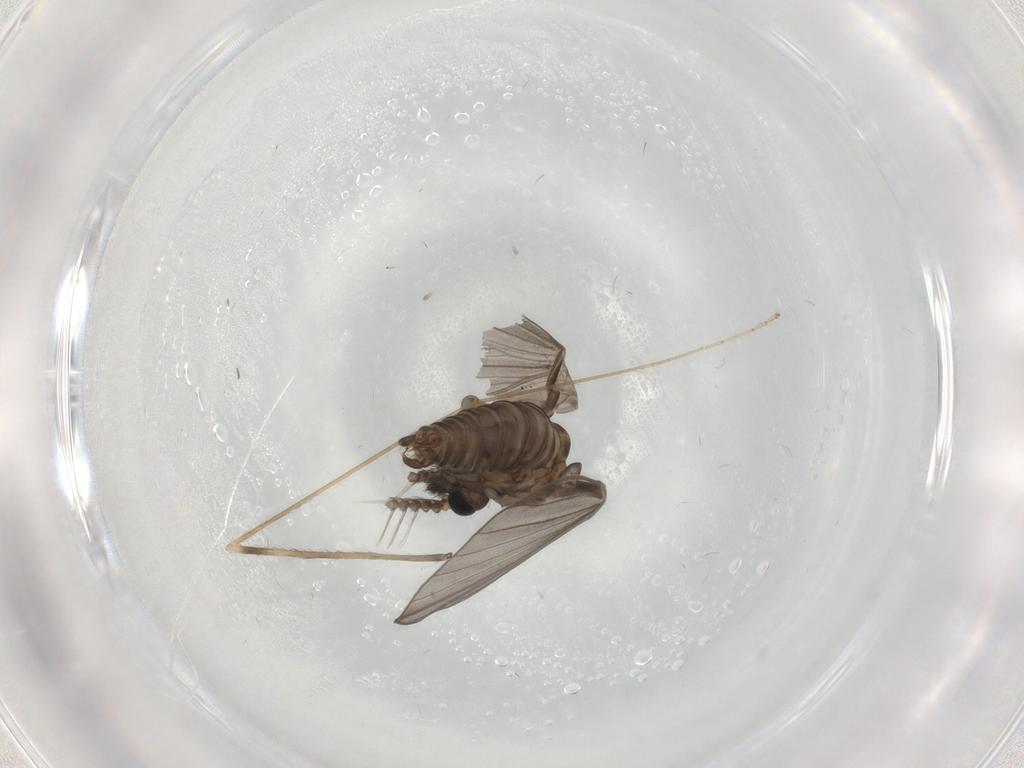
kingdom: Animalia
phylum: Arthropoda
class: Insecta
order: Diptera
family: Cecidomyiidae
